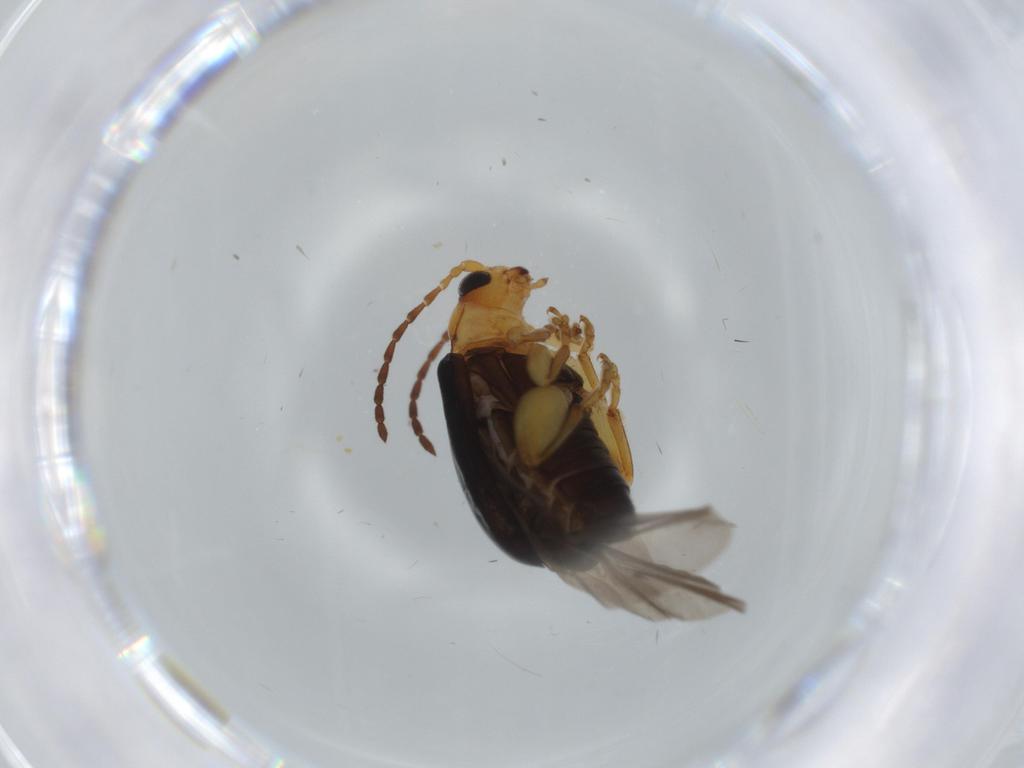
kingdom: Animalia
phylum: Arthropoda
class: Insecta
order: Coleoptera
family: Chrysomelidae
